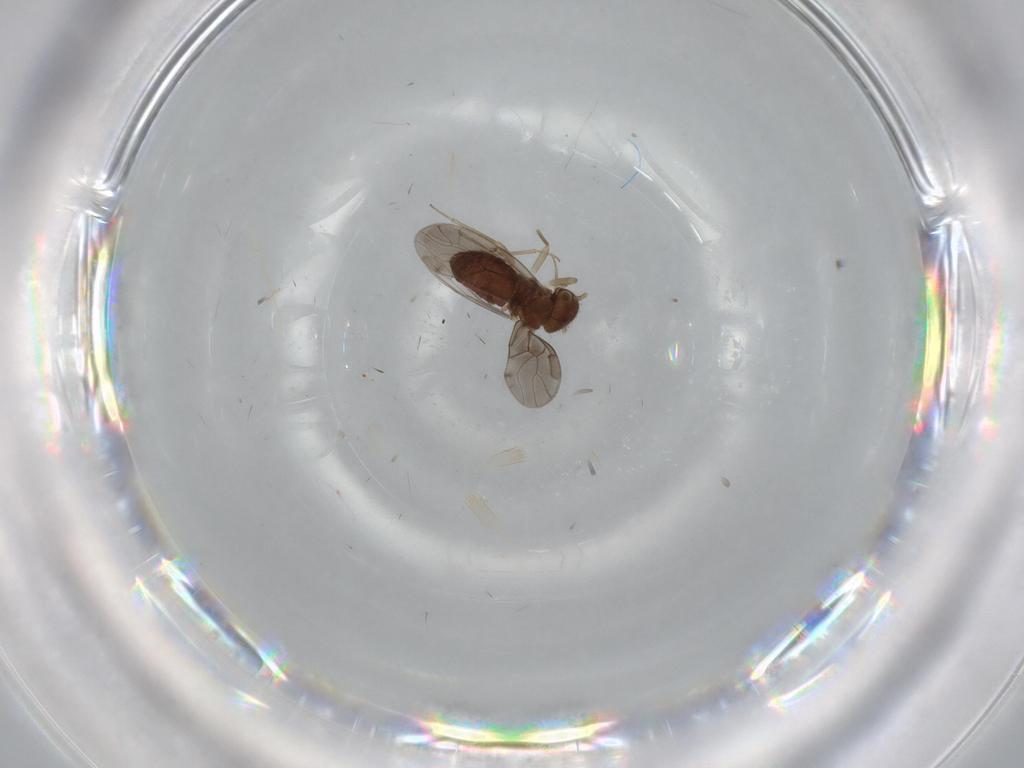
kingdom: Animalia
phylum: Arthropoda
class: Insecta
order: Psocodea
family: Ectopsocidae
